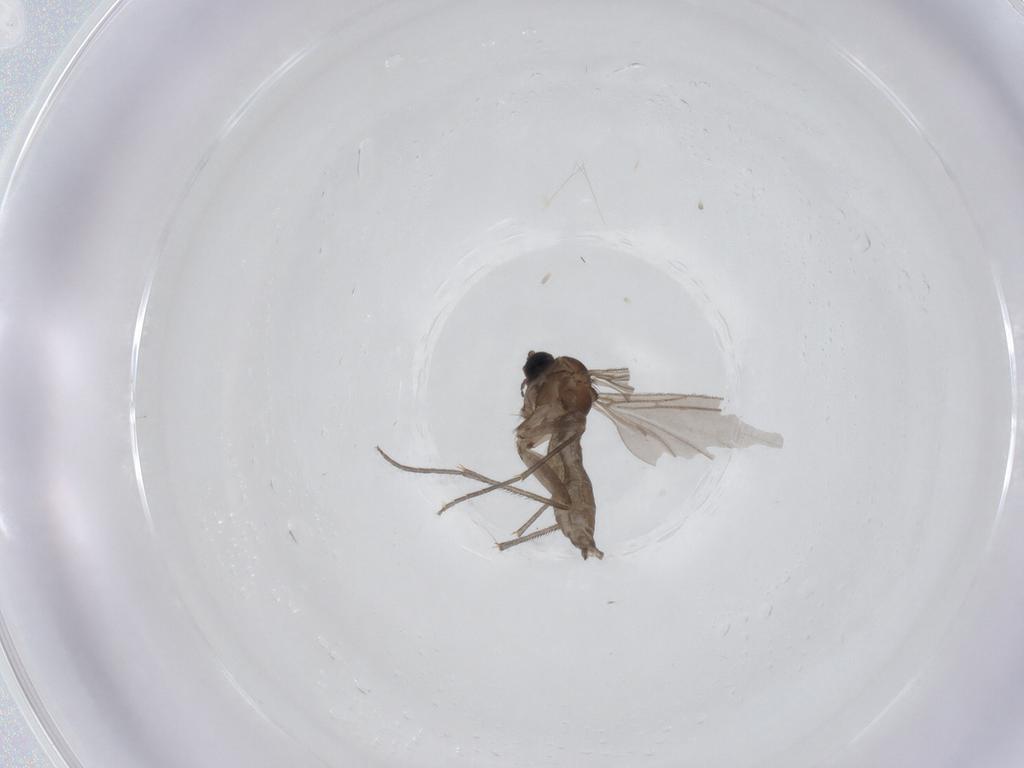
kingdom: Animalia
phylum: Arthropoda
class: Insecta
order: Diptera
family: Sciaridae
